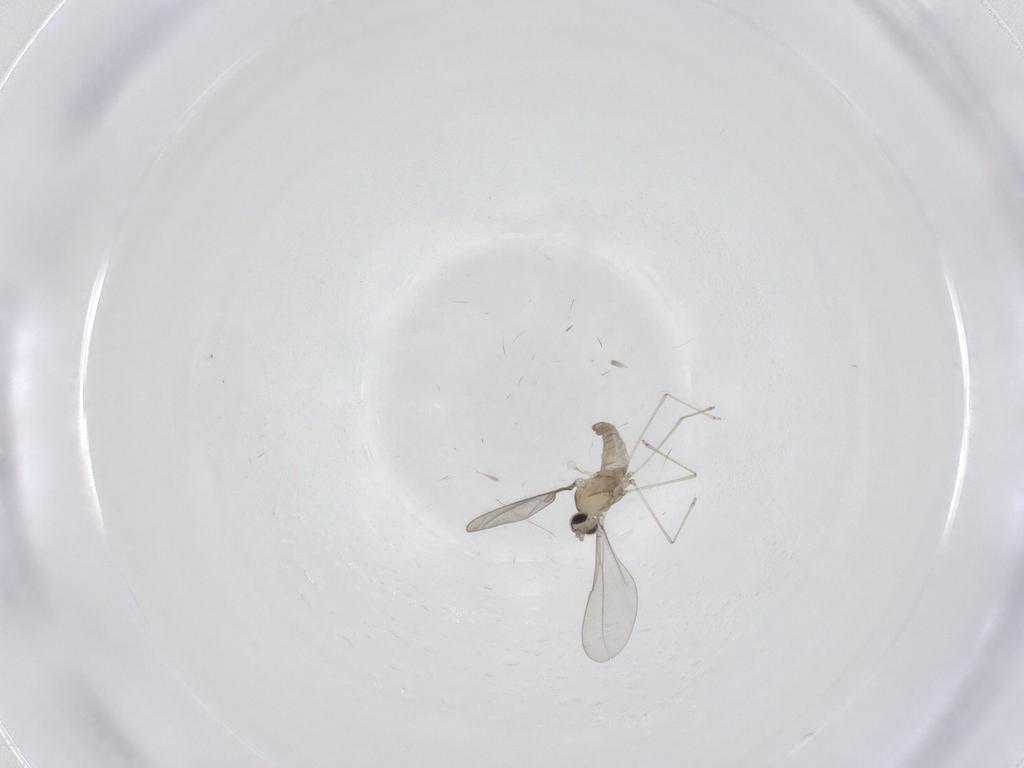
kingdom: Animalia
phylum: Arthropoda
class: Insecta
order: Diptera
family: Cecidomyiidae
